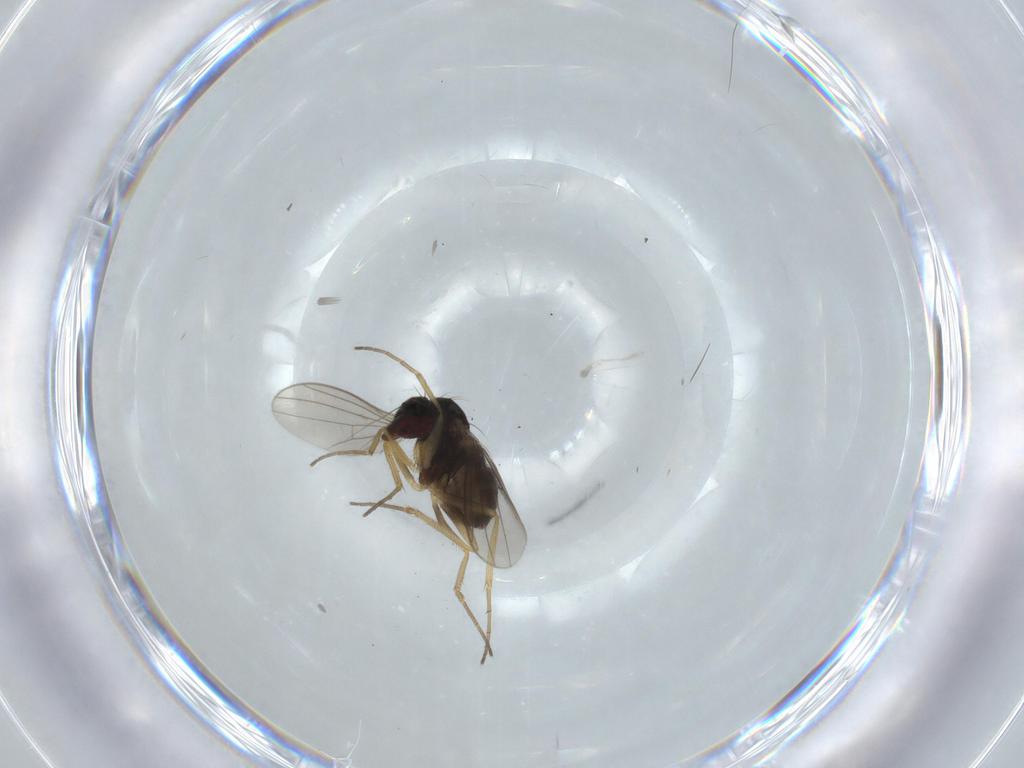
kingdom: Animalia
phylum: Arthropoda
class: Insecta
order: Diptera
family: Dolichopodidae
